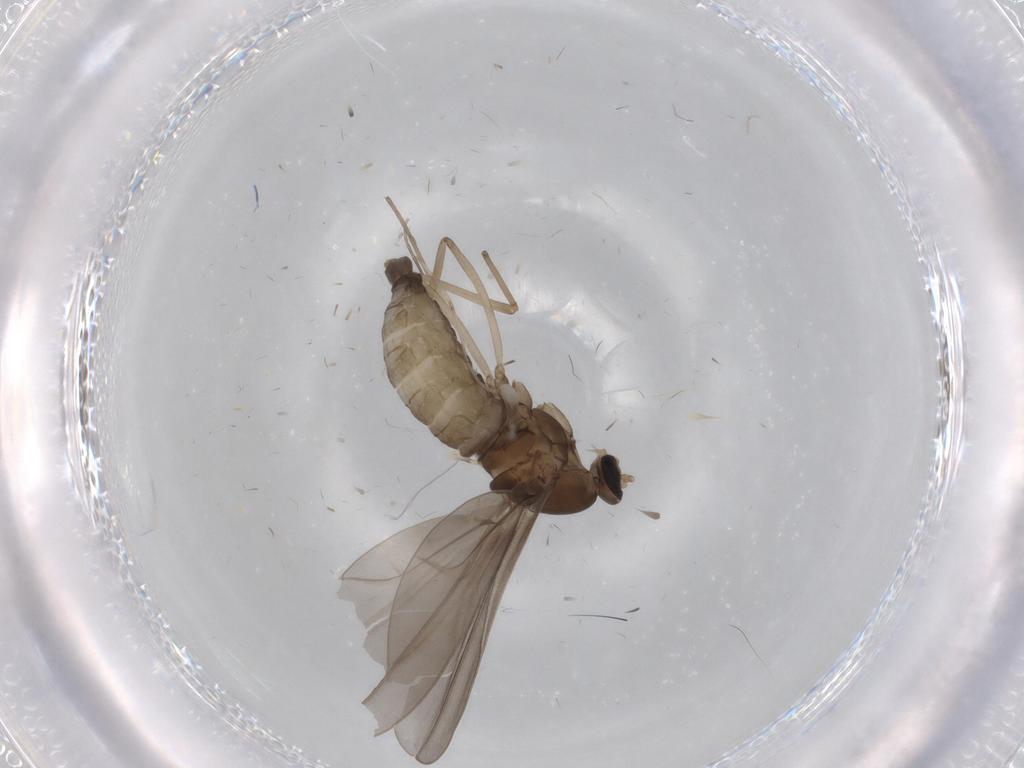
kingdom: Animalia
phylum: Arthropoda
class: Insecta
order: Diptera
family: Cecidomyiidae
